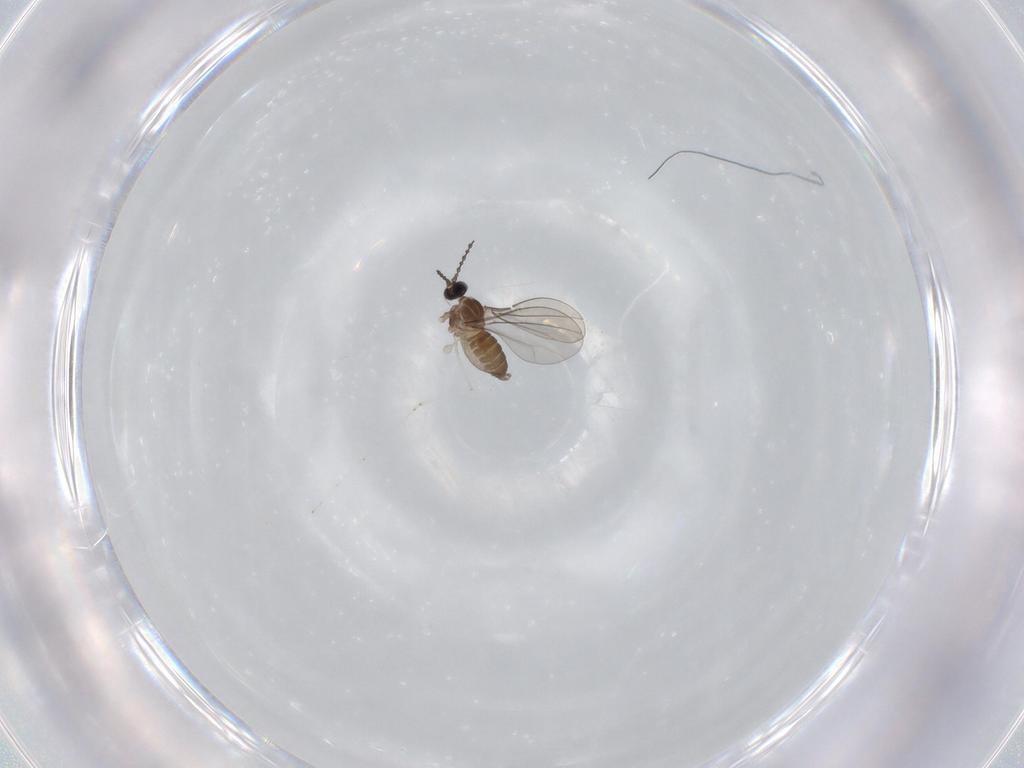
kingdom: Animalia
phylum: Arthropoda
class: Insecta
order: Diptera
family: Cecidomyiidae
